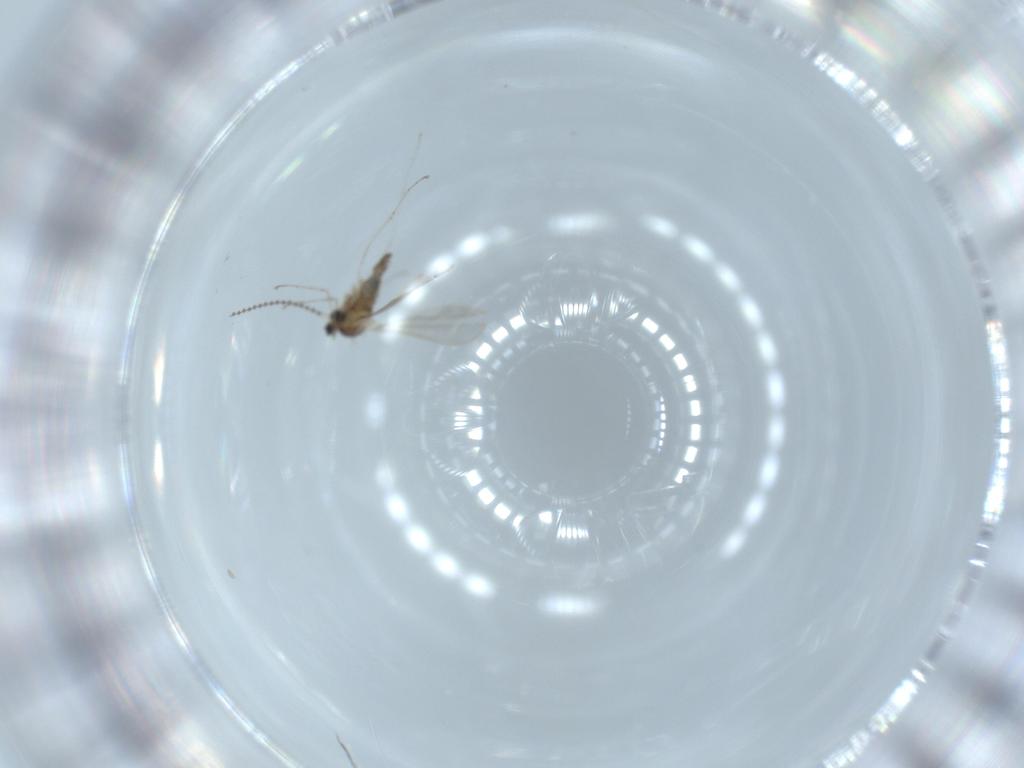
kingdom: Animalia
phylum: Arthropoda
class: Insecta
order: Diptera
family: Cecidomyiidae
